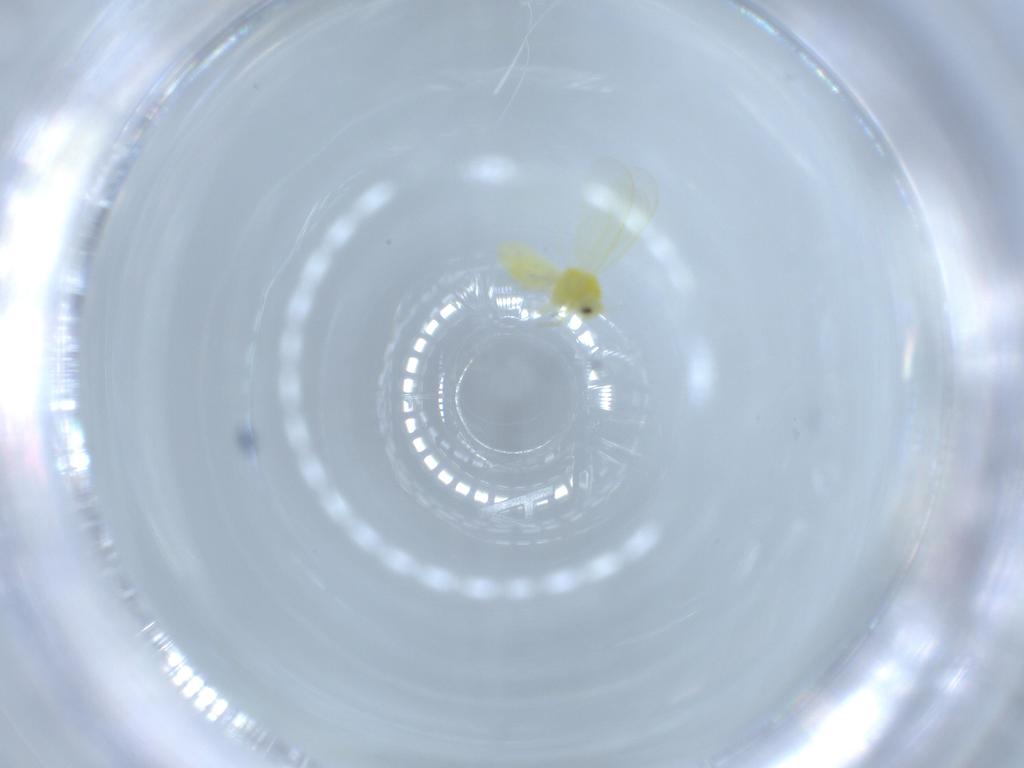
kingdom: Animalia
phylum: Arthropoda
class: Insecta
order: Hemiptera
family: Aleyrodidae
